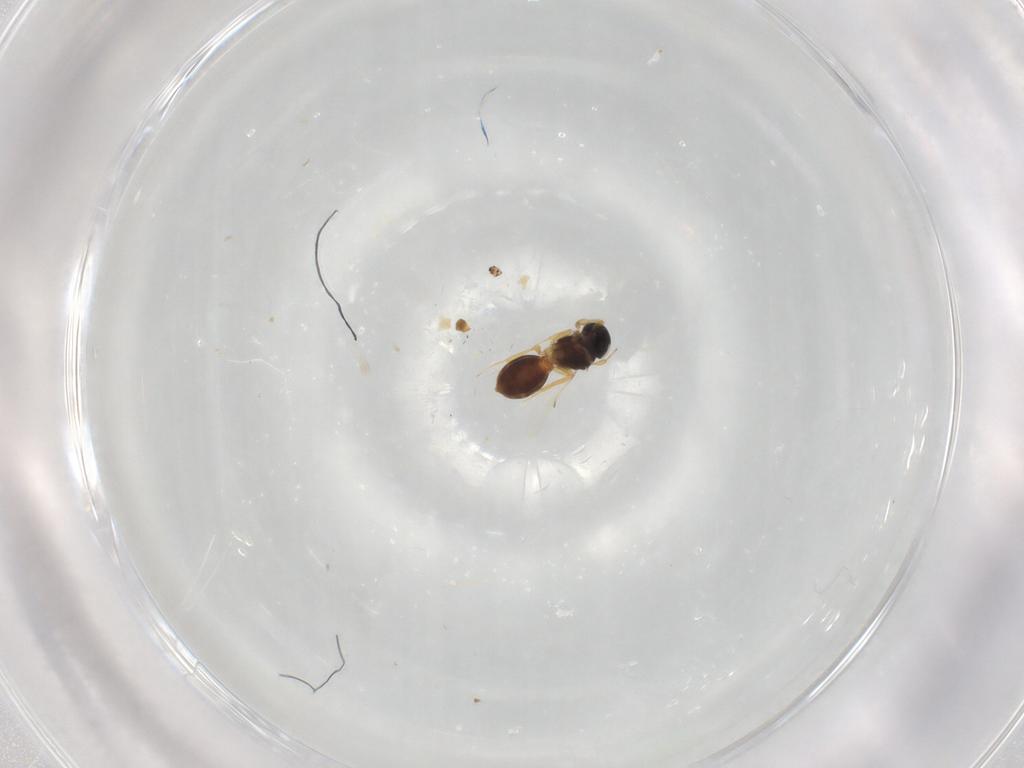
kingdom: Animalia
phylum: Arthropoda
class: Insecta
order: Hymenoptera
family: Scelionidae
